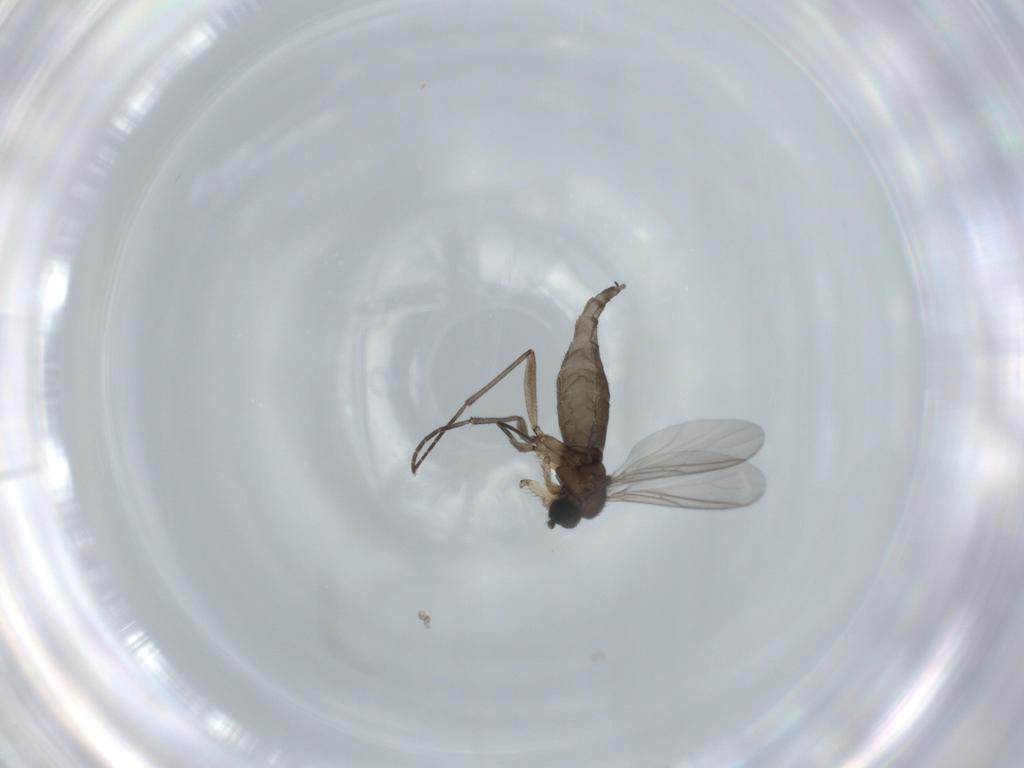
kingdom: Animalia
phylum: Arthropoda
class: Insecta
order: Diptera
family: Sciaridae
